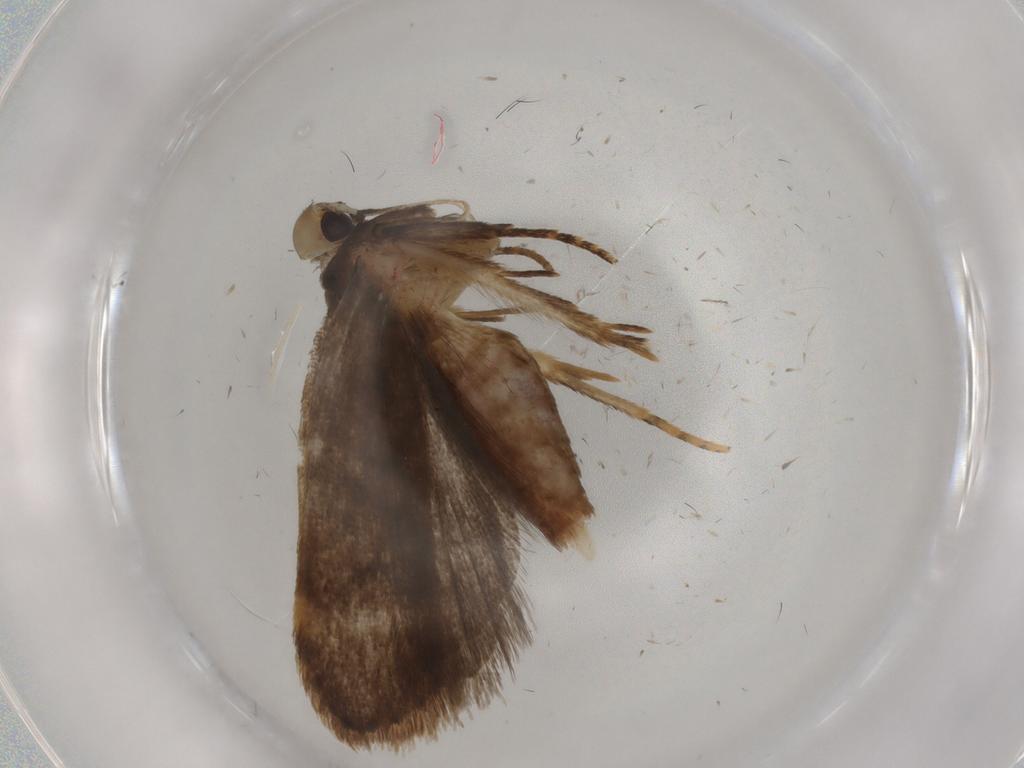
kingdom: Animalia
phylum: Arthropoda
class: Insecta
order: Lepidoptera
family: Gelechiidae
